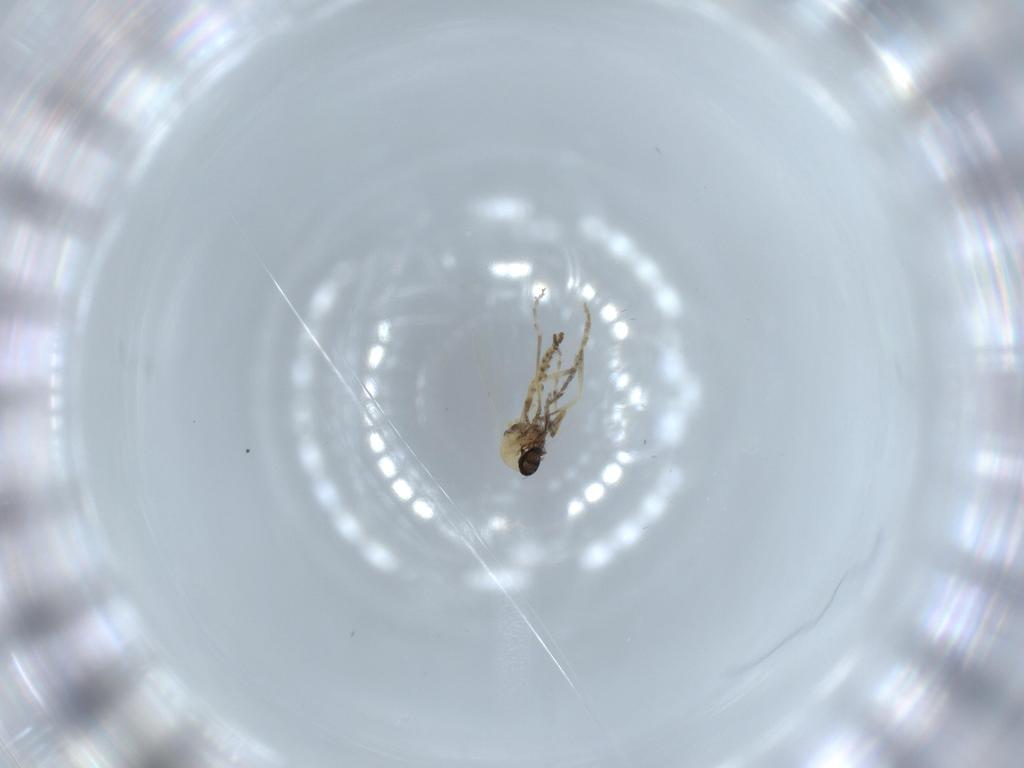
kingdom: Animalia
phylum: Arthropoda
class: Insecta
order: Diptera
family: Ceratopogonidae
